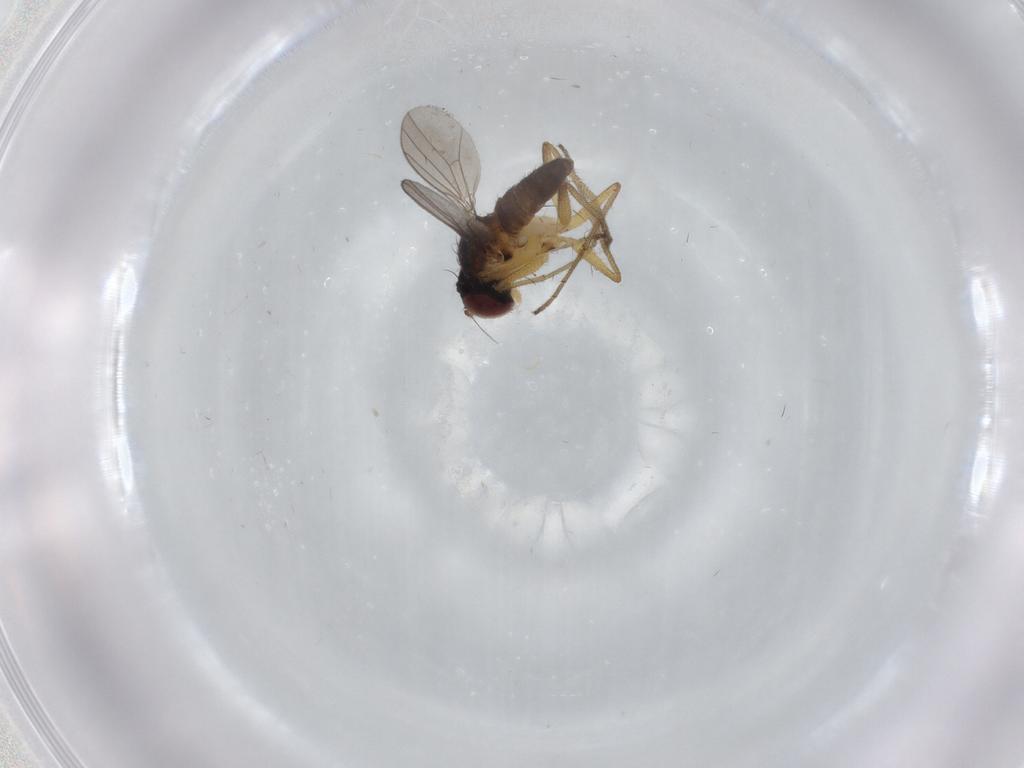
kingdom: Animalia
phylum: Arthropoda
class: Insecta
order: Diptera
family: Dolichopodidae
